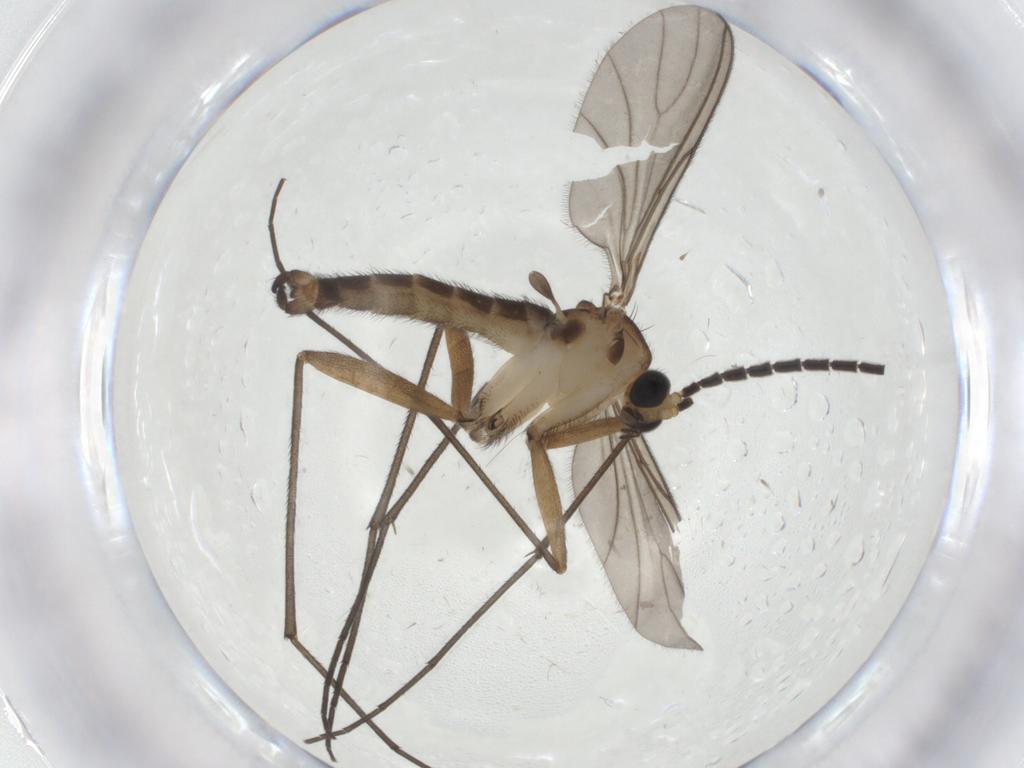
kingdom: Animalia
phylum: Arthropoda
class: Insecta
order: Diptera
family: Sciaridae
